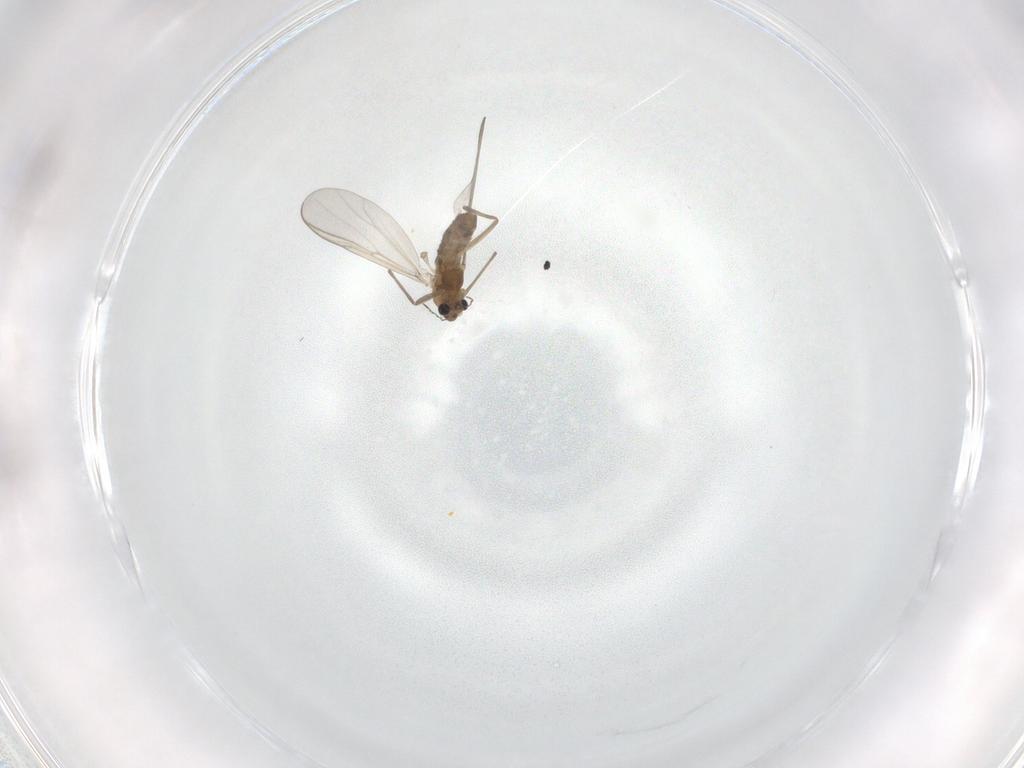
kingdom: Animalia
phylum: Arthropoda
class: Insecta
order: Diptera
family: Chironomidae
